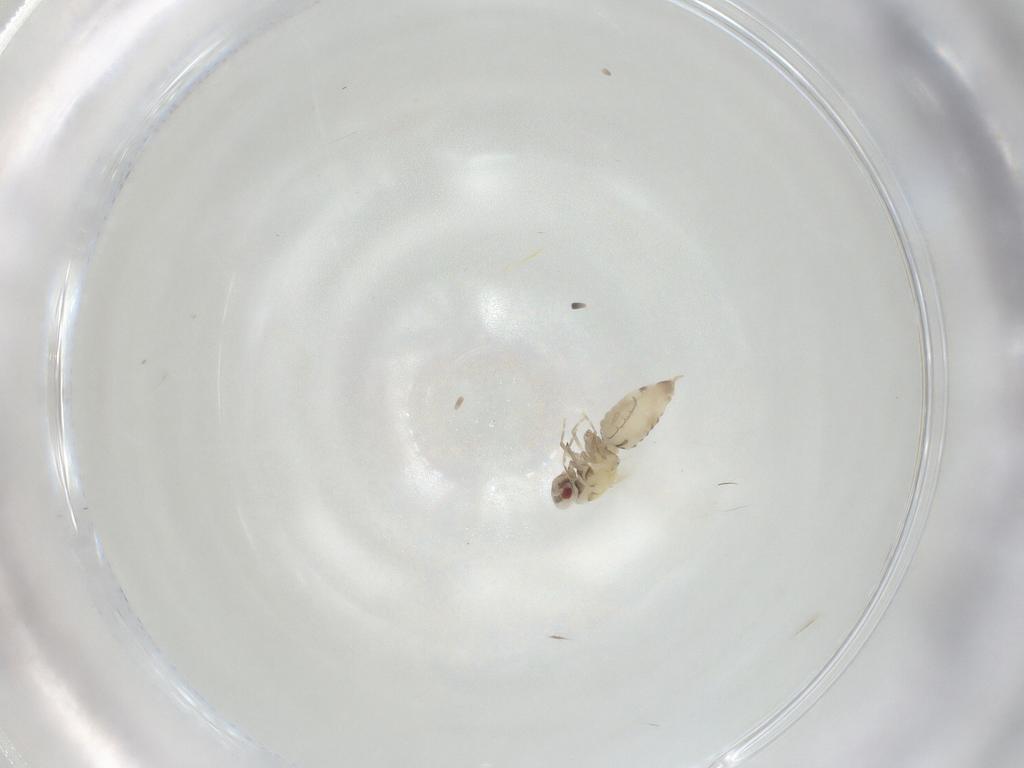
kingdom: Animalia
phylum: Arthropoda
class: Insecta
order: Hemiptera
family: Aleyrodidae
